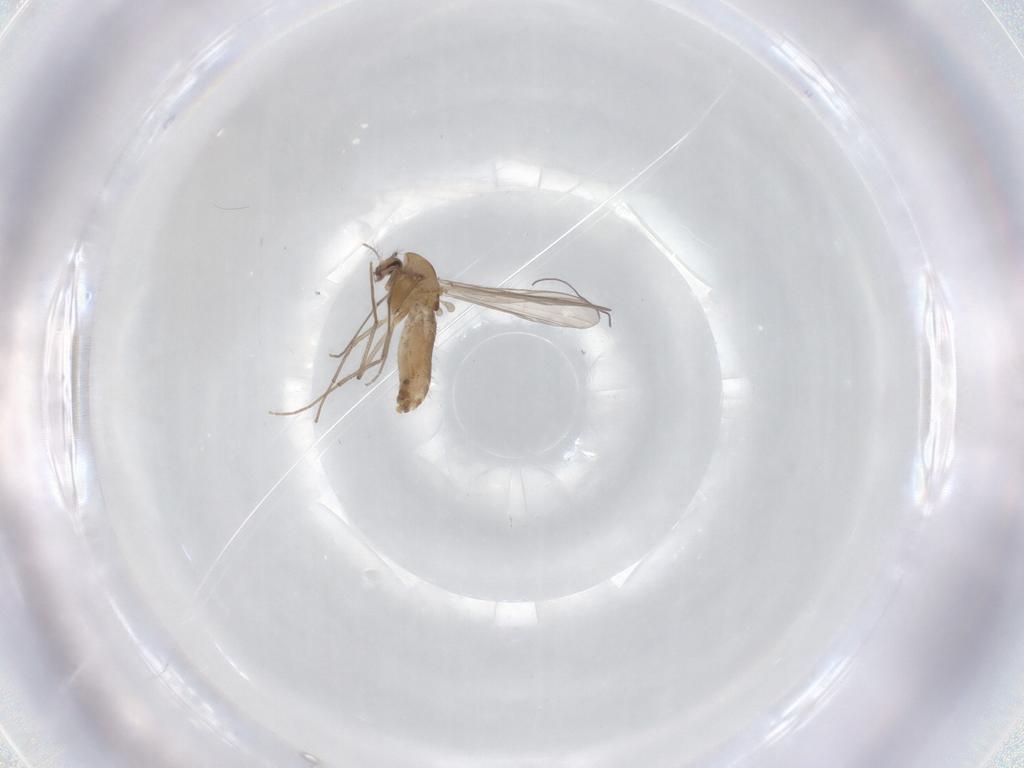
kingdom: Animalia
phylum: Arthropoda
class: Insecta
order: Diptera
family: Chironomidae
